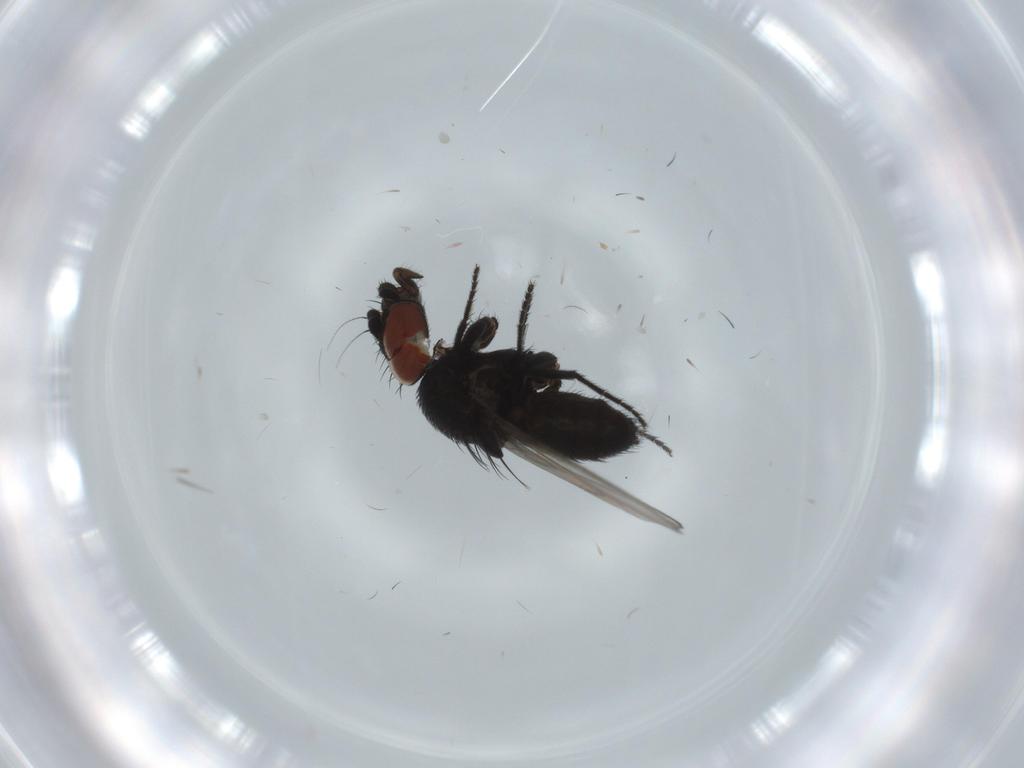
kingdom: Animalia
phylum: Arthropoda
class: Insecta
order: Diptera
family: Milichiidae
